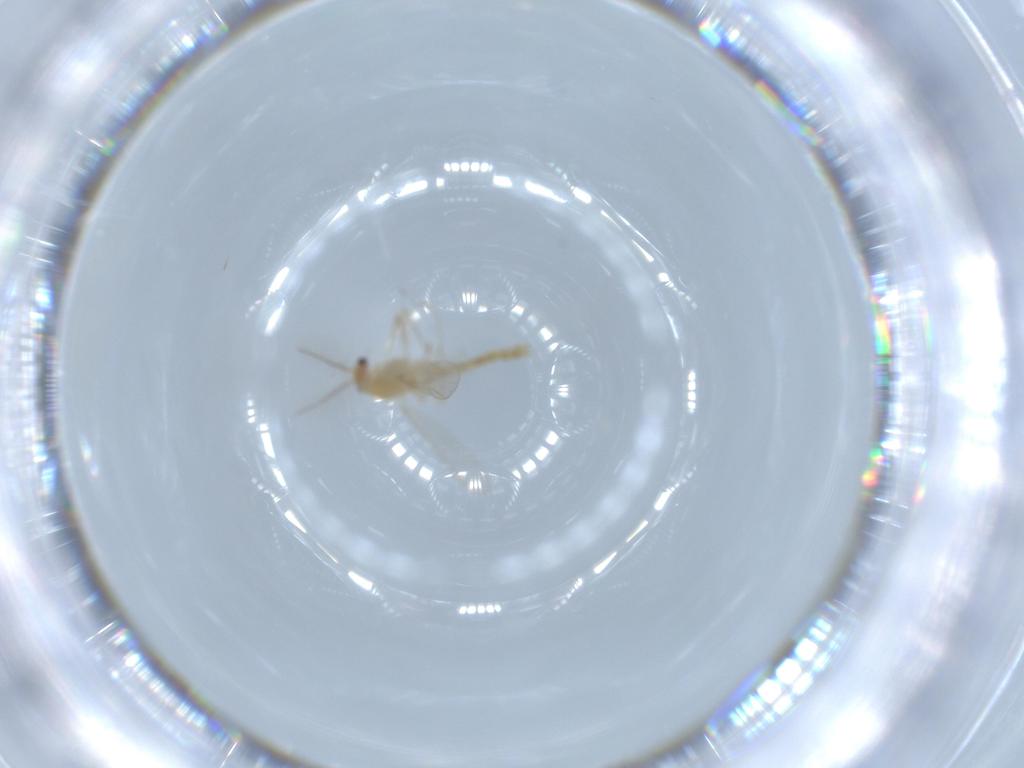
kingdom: Animalia
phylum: Arthropoda
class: Insecta
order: Diptera
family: Chironomidae
